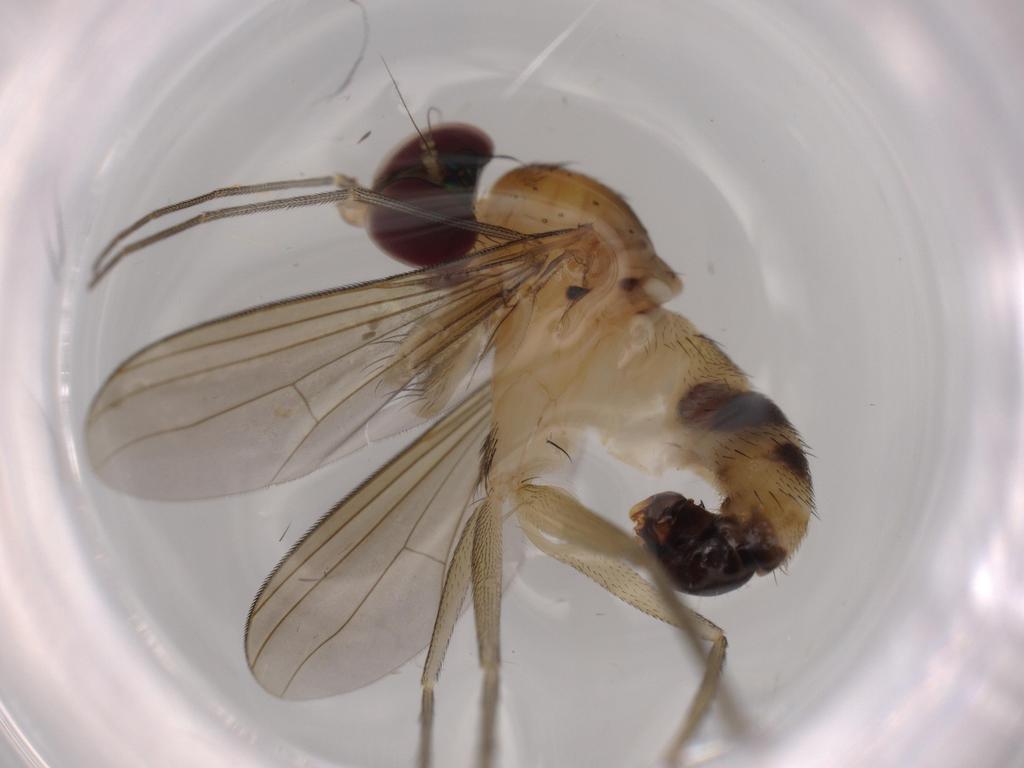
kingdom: Animalia
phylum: Arthropoda
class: Insecta
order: Diptera
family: Dolichopodidae
